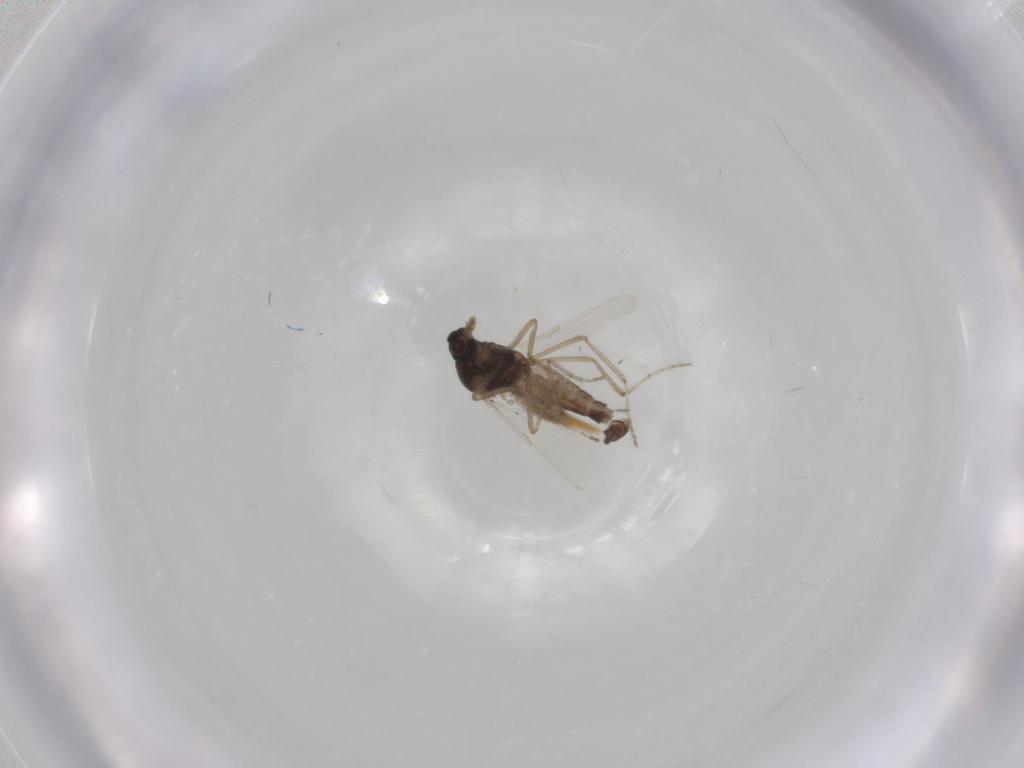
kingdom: Animalia
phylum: Arthropoda
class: Insecta
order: Diptera
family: Ceratopogonidae
